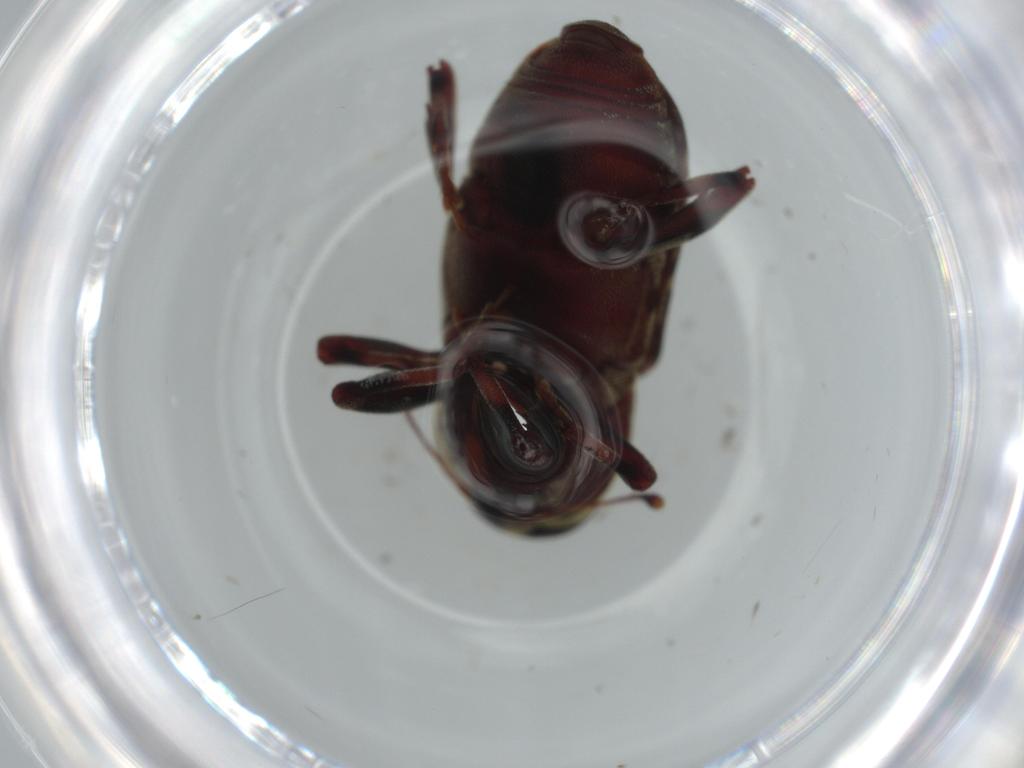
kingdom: Animalia
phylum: Arthropoda
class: Insecta
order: Coleoptera
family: Curculionidae
